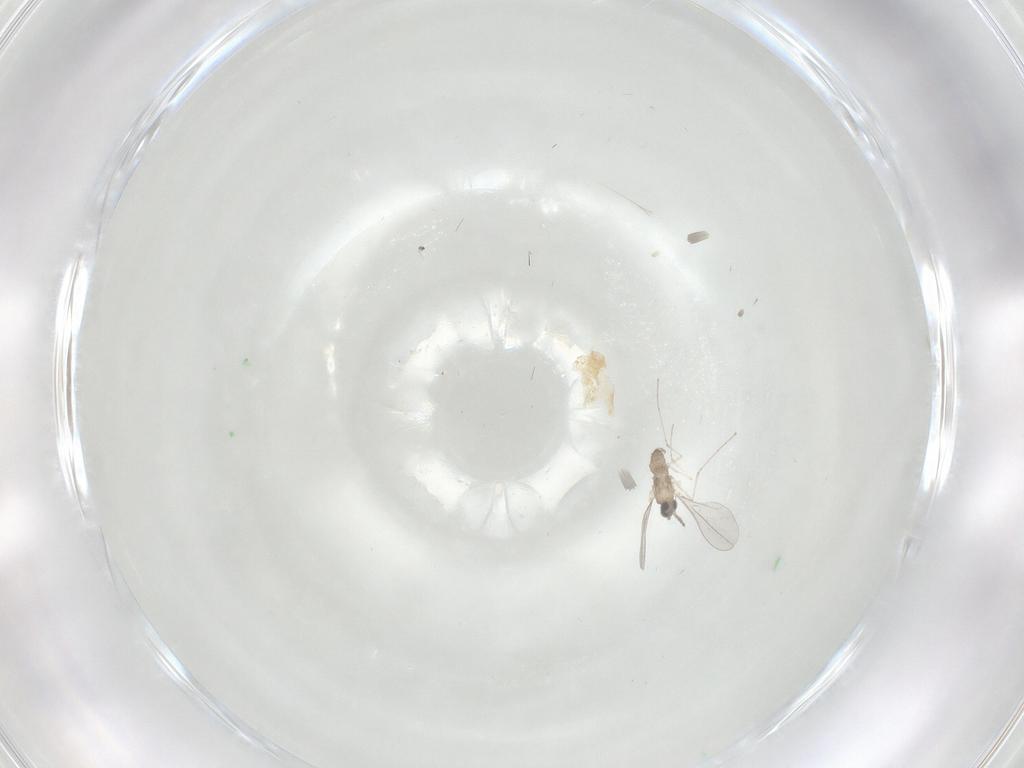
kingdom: Animalia
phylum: Arthropoda
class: Insecta
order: Diptera
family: Cecidomyiidae
